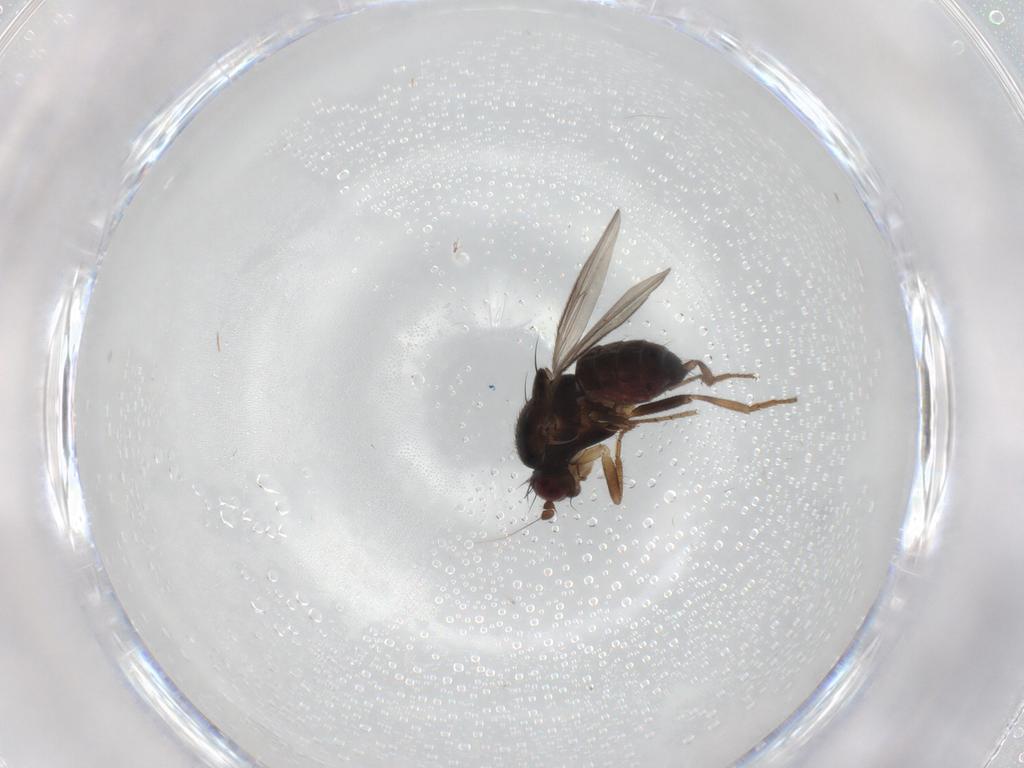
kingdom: Animalia
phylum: Arthropoda
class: Insecta
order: Diptera
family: Sphaeroceridae
